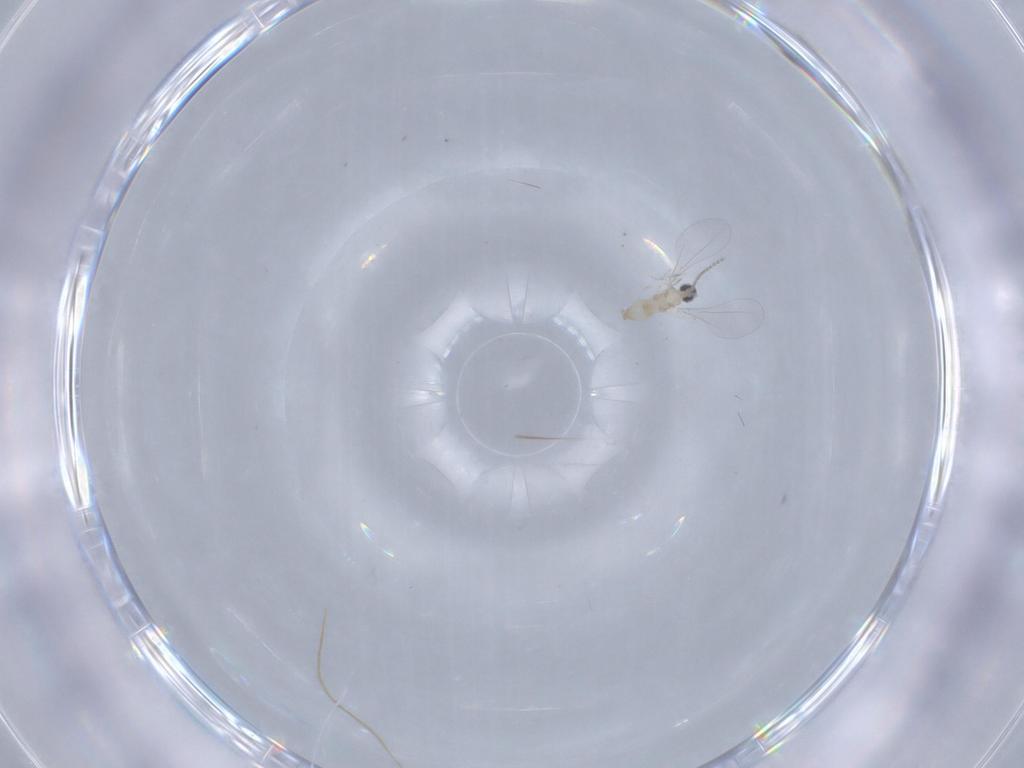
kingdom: Animalia
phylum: Arthropoda
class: Insecta
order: Diptera
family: Cecidomyiidae
